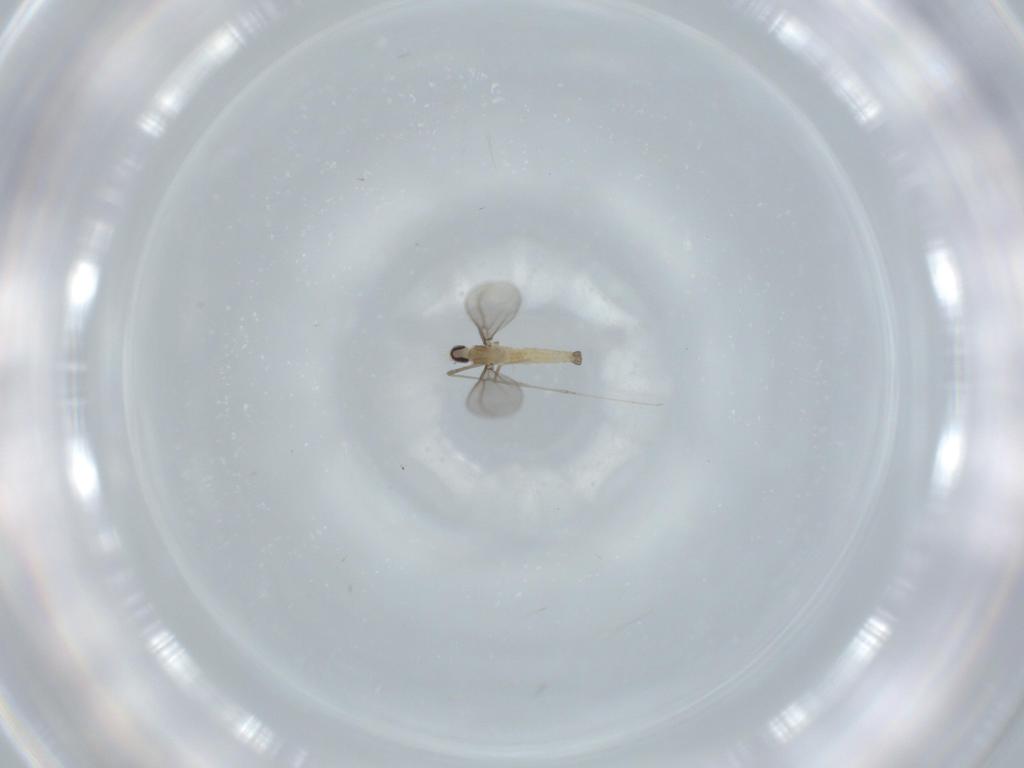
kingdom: Animalia
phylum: Arthropoda
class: Insecta
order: Diptera
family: Cecidomyiidae
